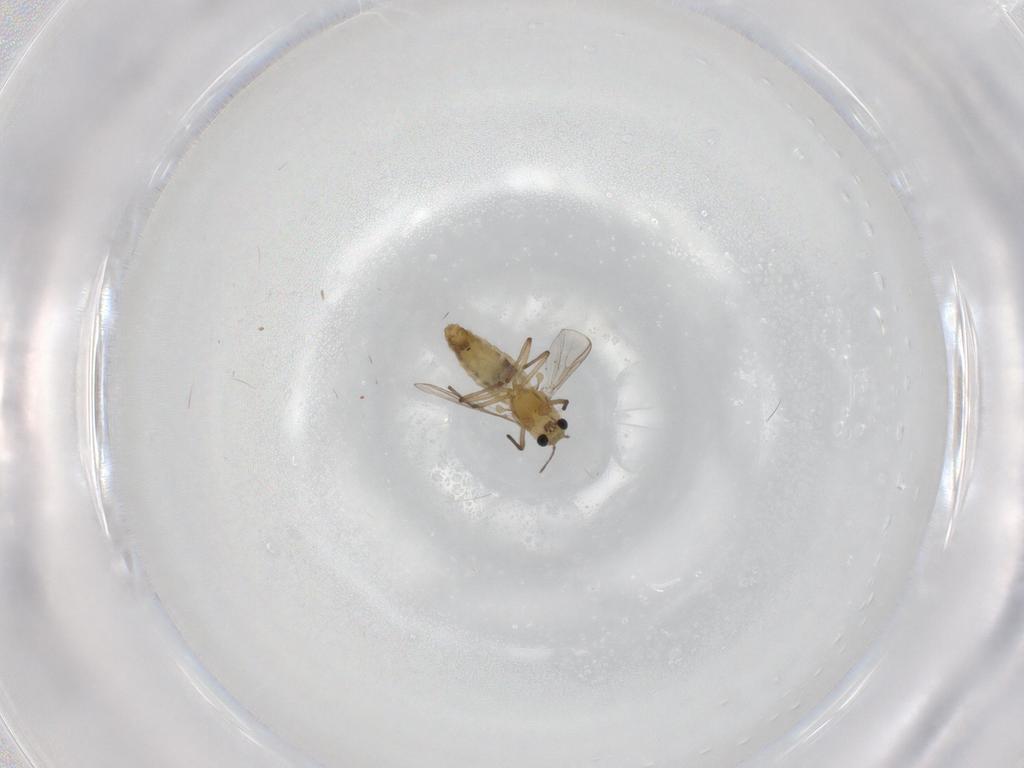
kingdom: Animalia
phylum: Arthropoda
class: Insecta
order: Diptera
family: Chironomidae
